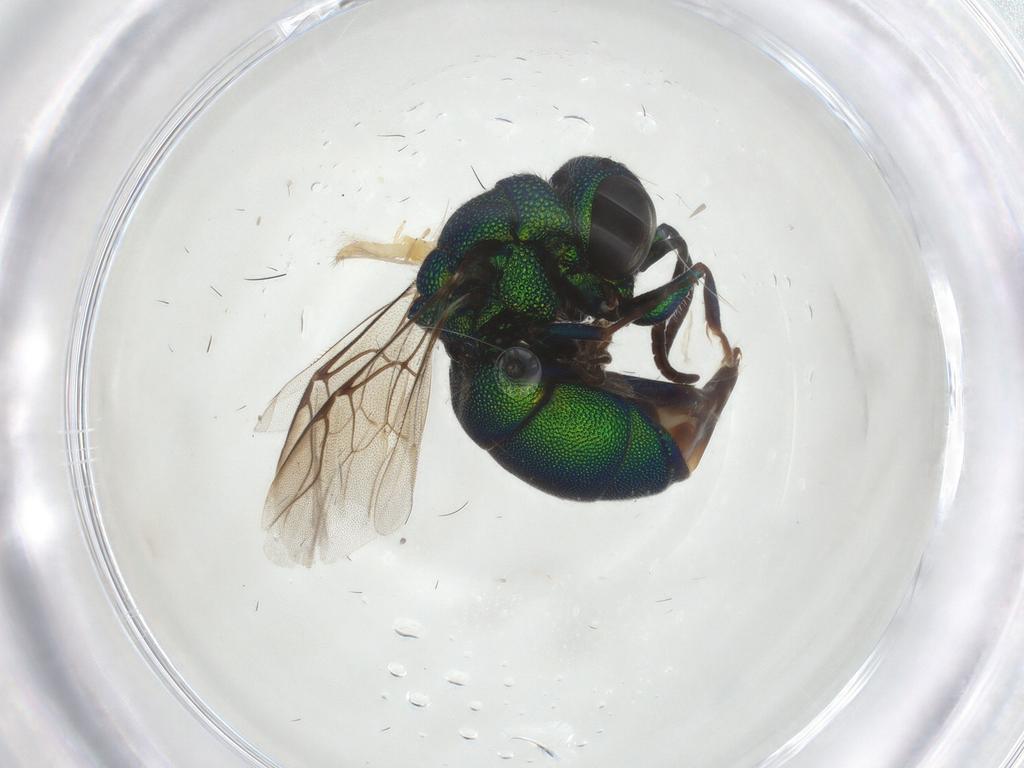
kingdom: Animalia
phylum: Arthropoda
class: Insecta
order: Hymenoptera
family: Chrysididae
